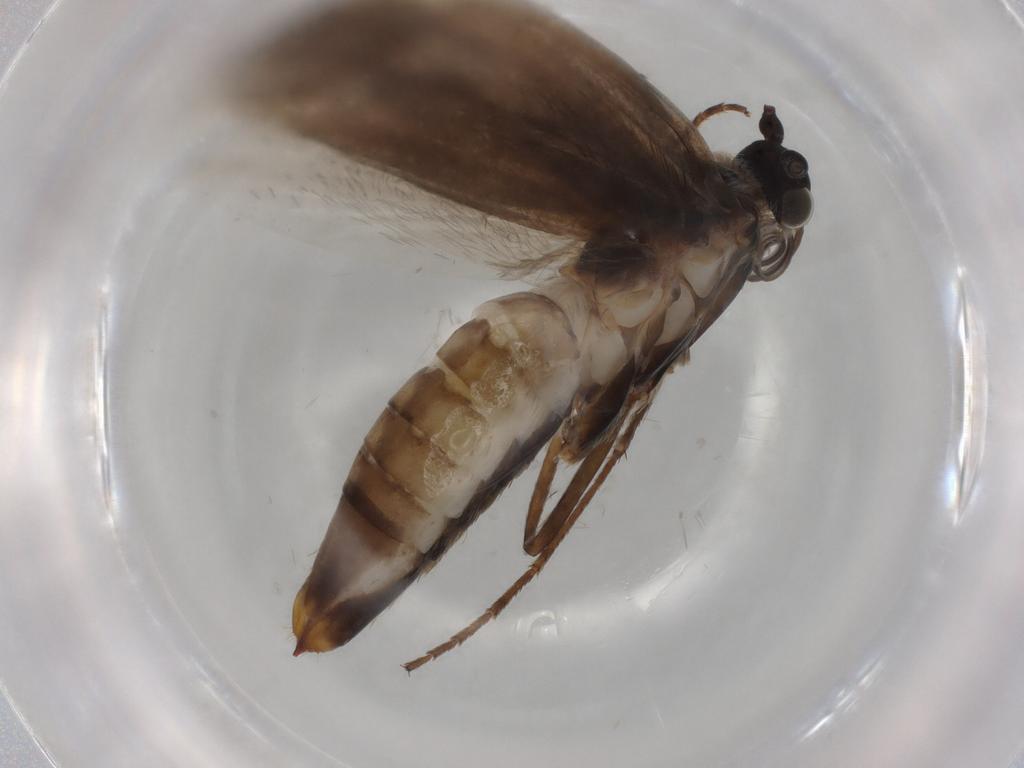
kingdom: Animalia
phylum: Arthropoda
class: Insecta
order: Lepidoptera
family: Adelidae
